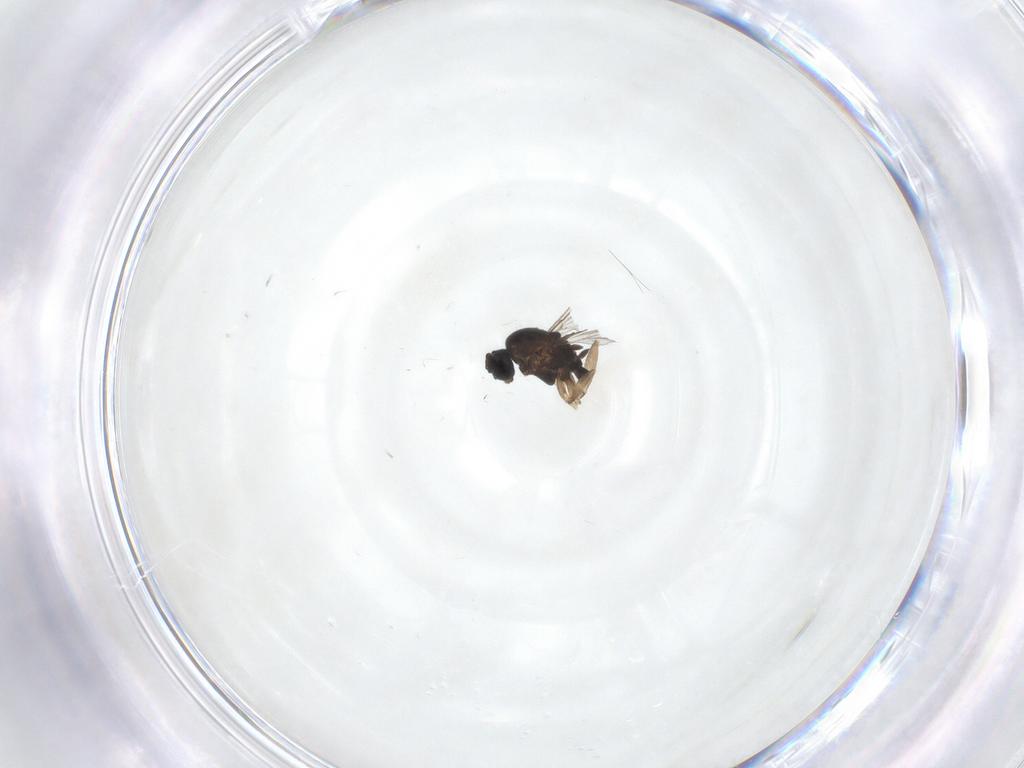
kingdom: Animalia
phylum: Arthropoda
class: Insecta
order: Diptera
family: Sciaridae
